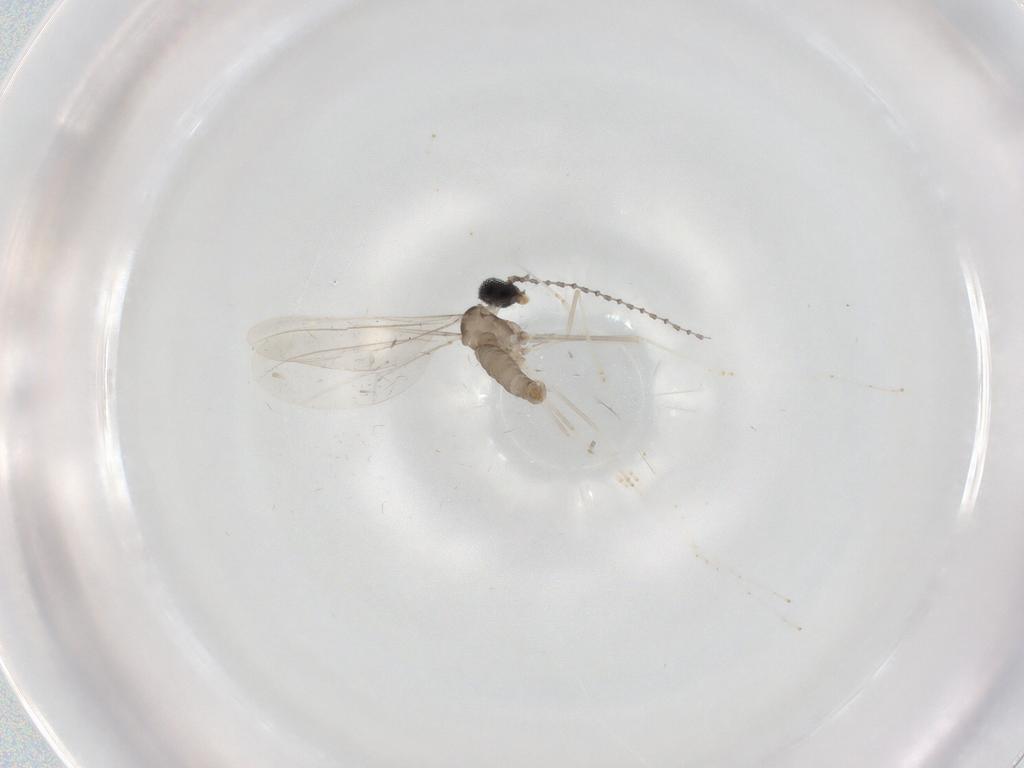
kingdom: Animalia
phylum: Arthropoda
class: Insecta
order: Diptera
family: Cecidomyiidae
